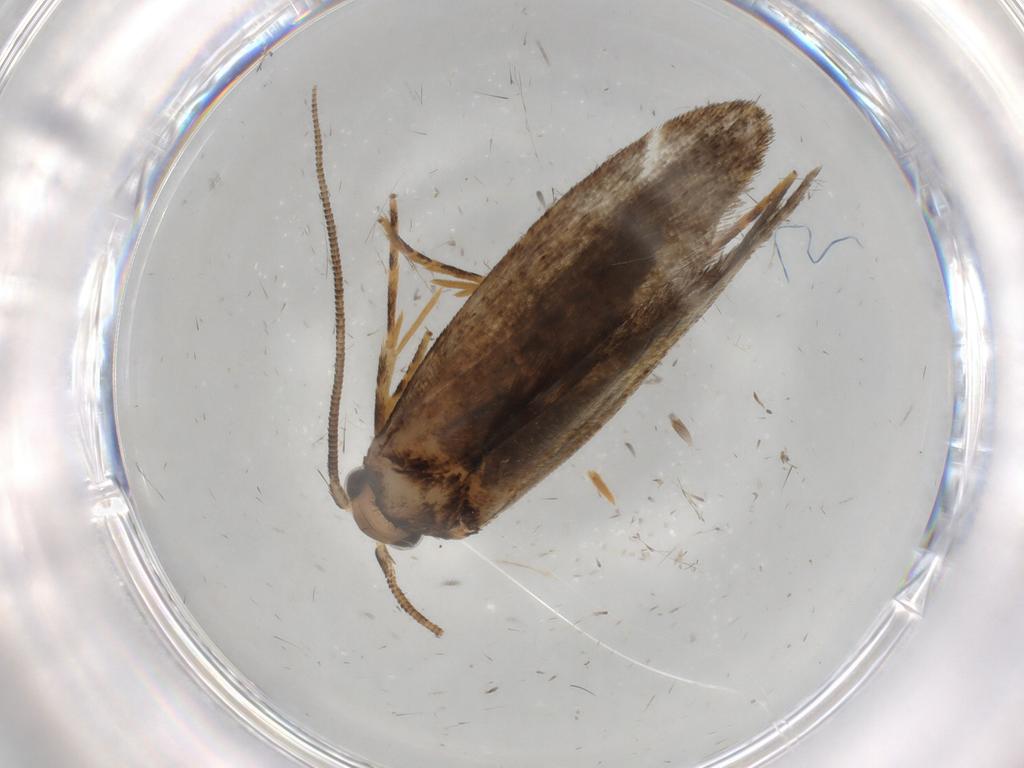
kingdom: Animalia
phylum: Arthropoda
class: Insecta
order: Lepidoptera
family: Tineidae
